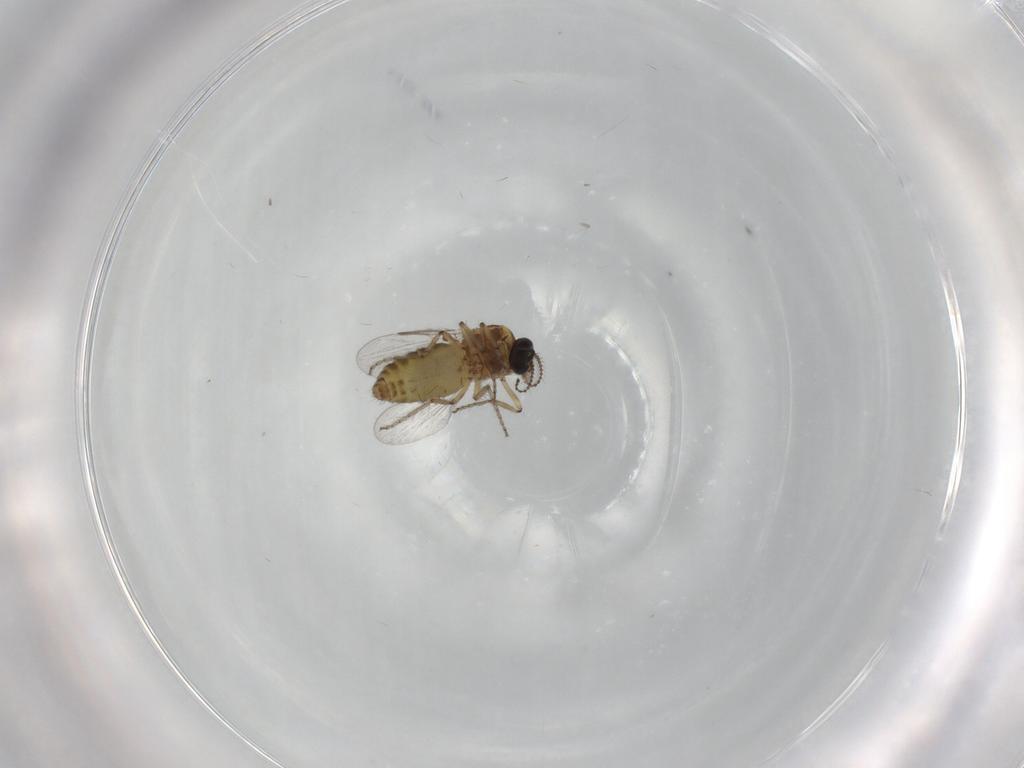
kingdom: Animalia
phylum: Arthropoda
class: Insecta
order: Diptera
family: Ceratopogonidae
